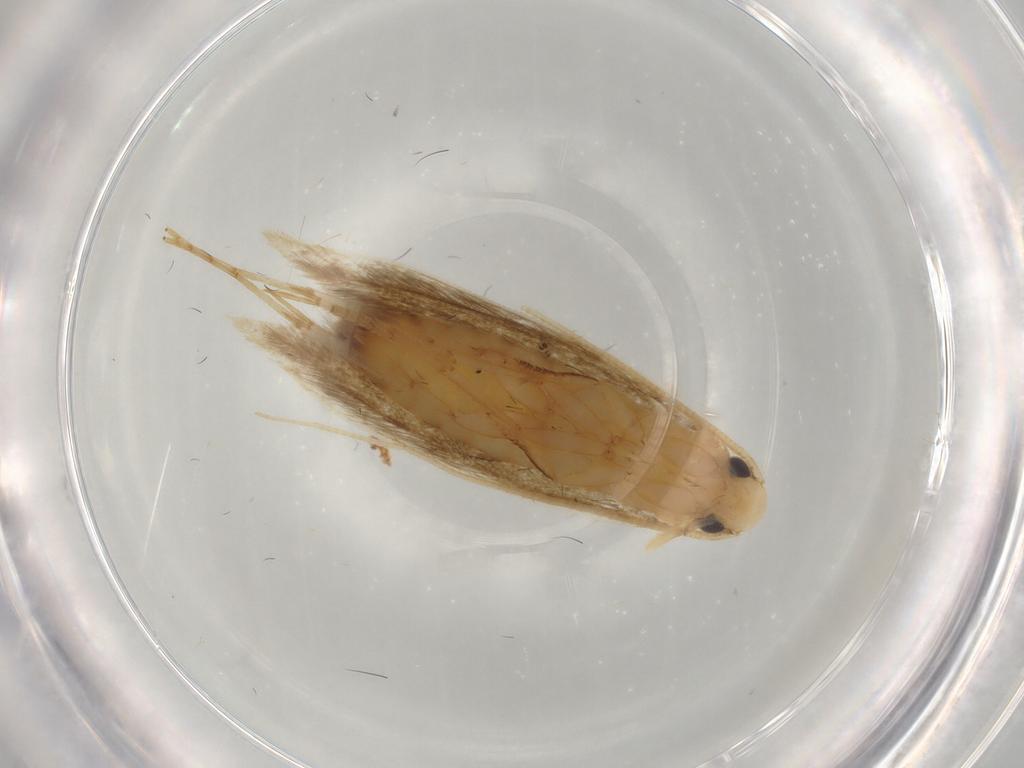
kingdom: Animalia
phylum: Arthropoda
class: Insecta
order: Lepidoptera
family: Tineidae
